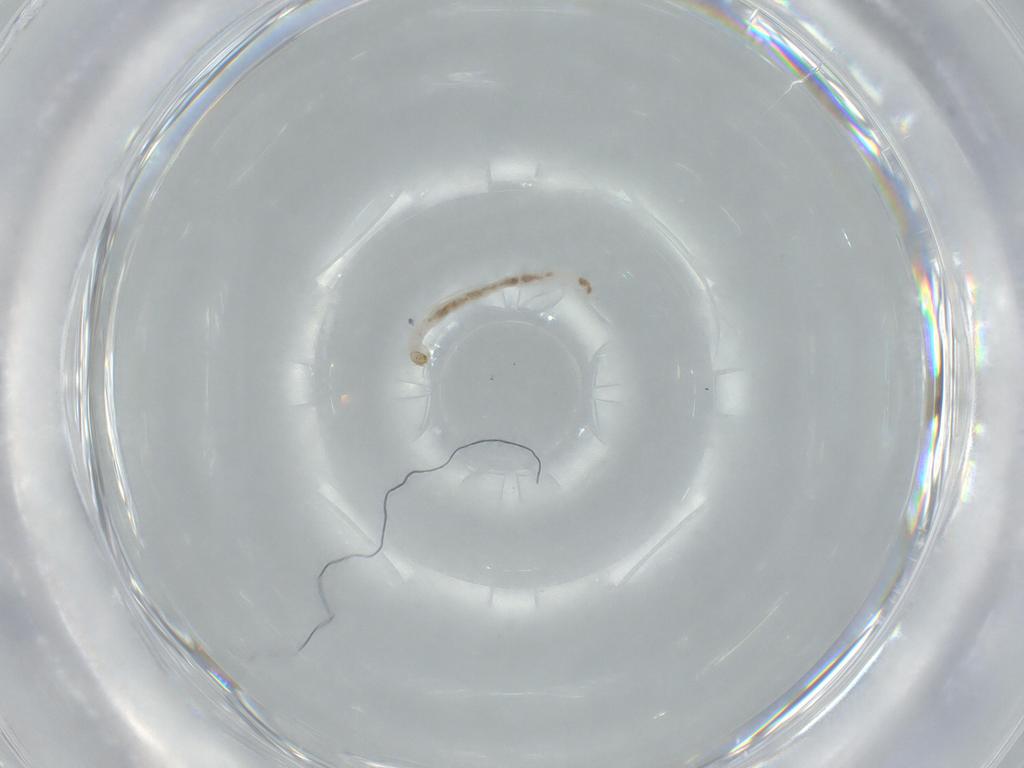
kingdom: Animalia
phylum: Arthropoda
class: Insecta
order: Diptera
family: Chironomidae
